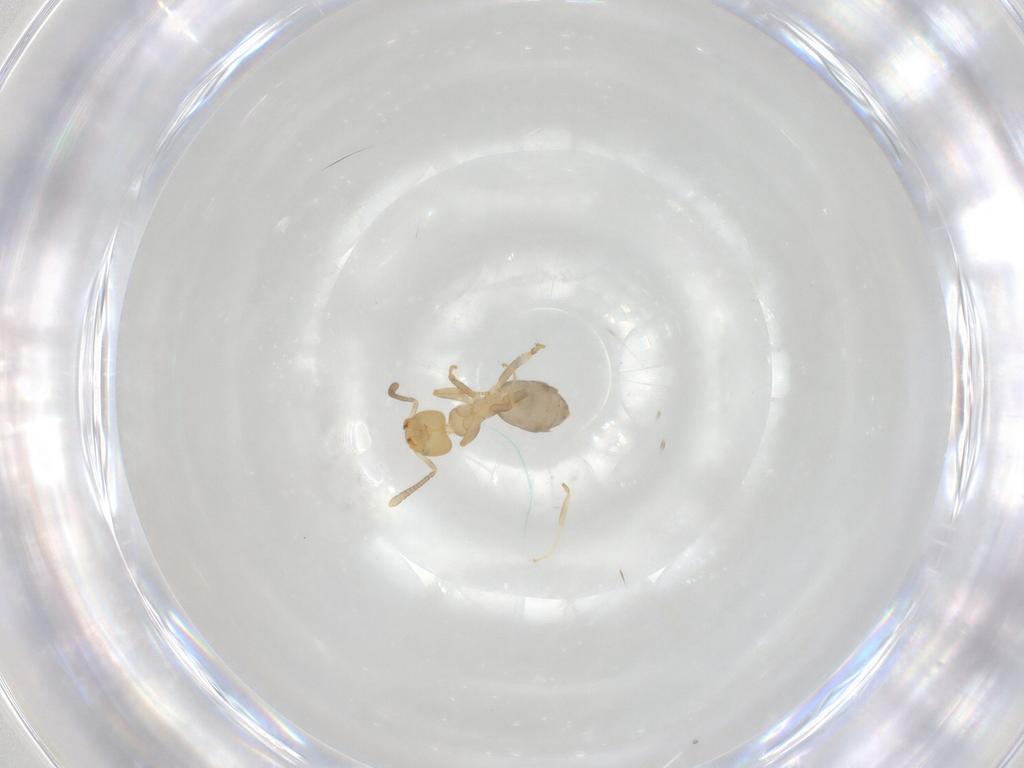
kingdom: Animalia
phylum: Arthropoda
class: Insecta
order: Hymenoptera
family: Formicidae
